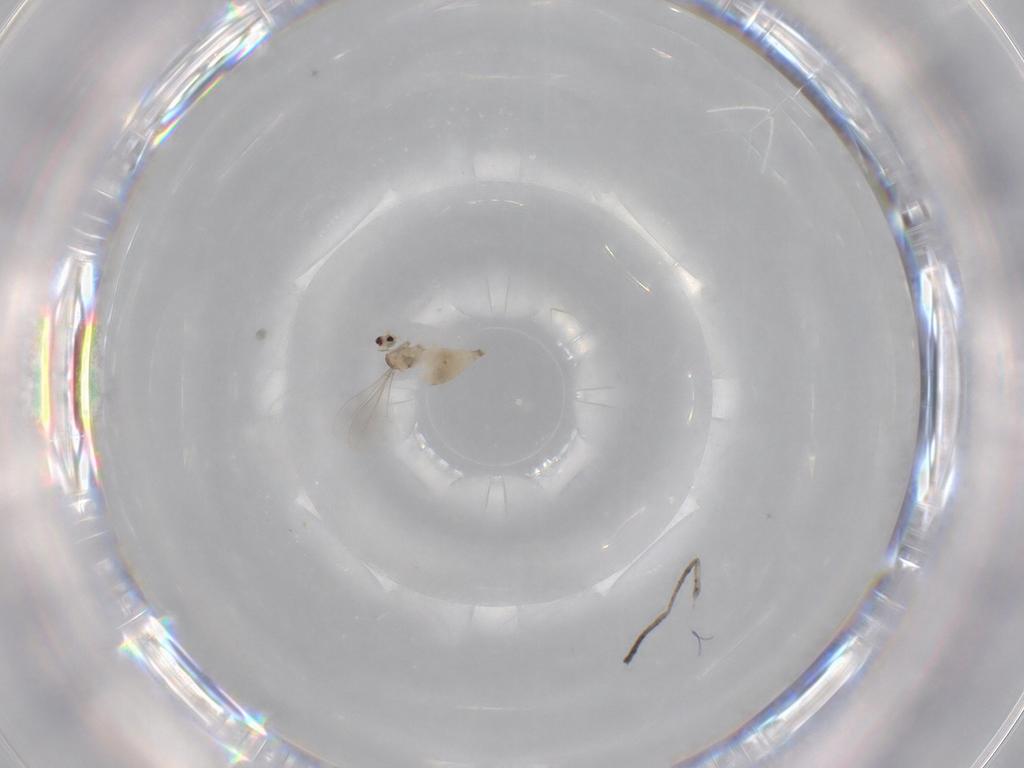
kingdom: Animalia
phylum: Arthropoda
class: Insecta
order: Diptera
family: Cecidomyiidae
